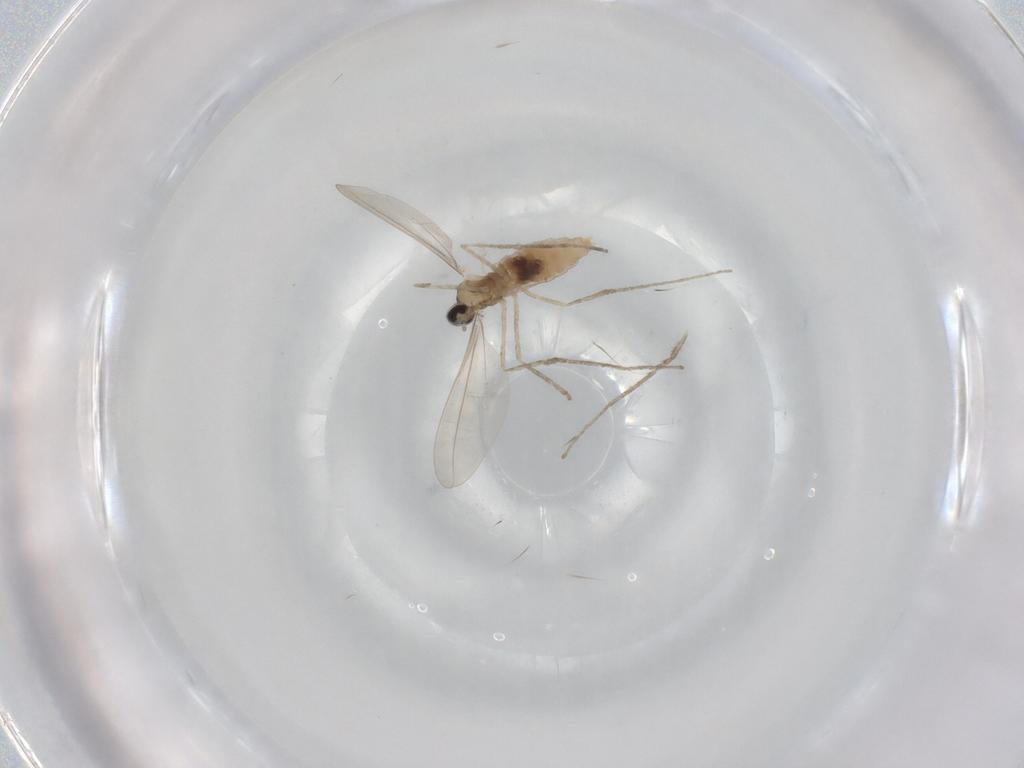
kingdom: Animalia
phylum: Arthropoda
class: Insecta
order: Diptera
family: Cecidomyiidae
